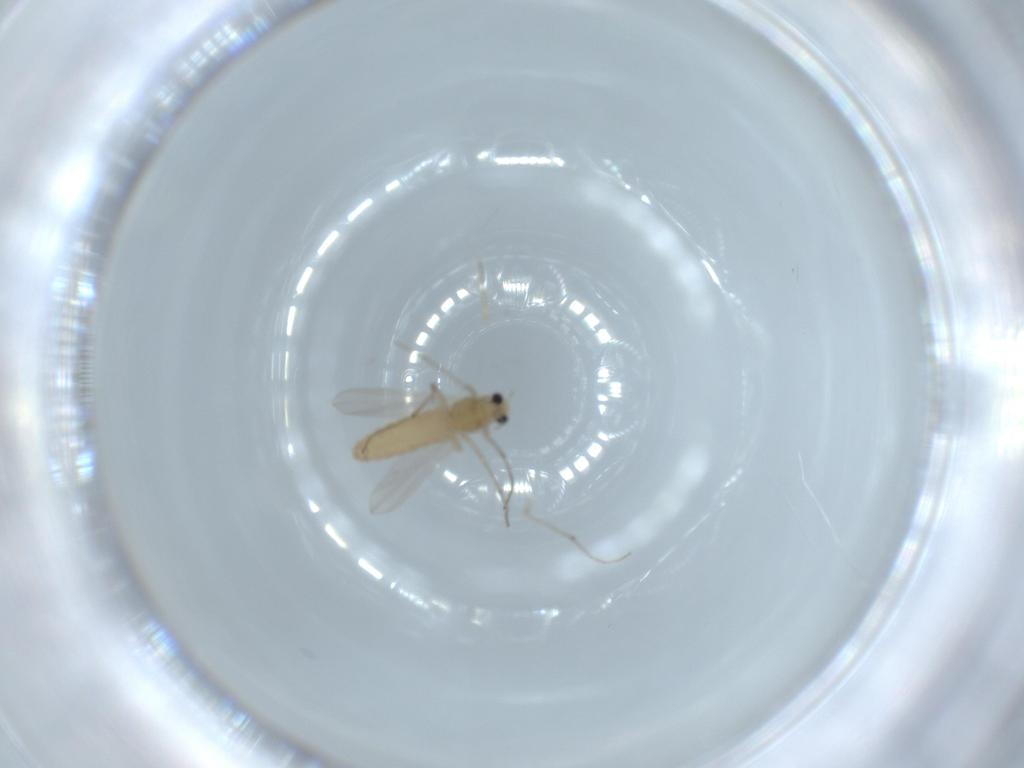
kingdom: Animalia
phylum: Arthropoda
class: Insecta
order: Diptera
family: Chironomidae
